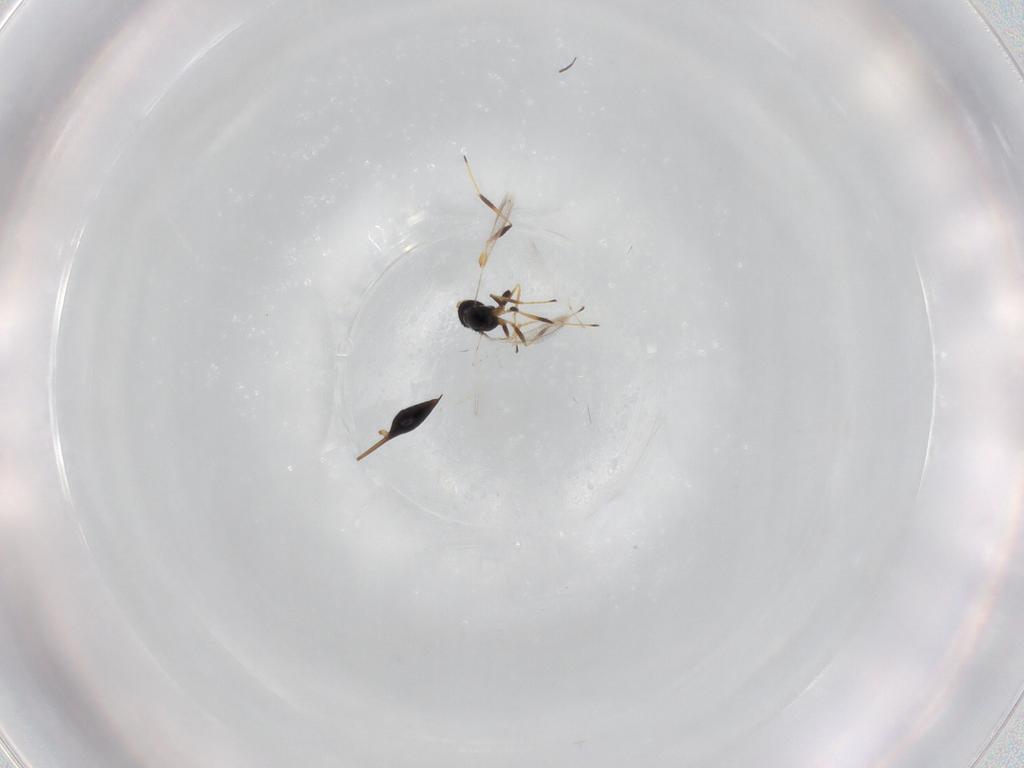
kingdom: Animalia
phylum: Arthropoda
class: Insecta
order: Hymenoptera
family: Mymaridae
